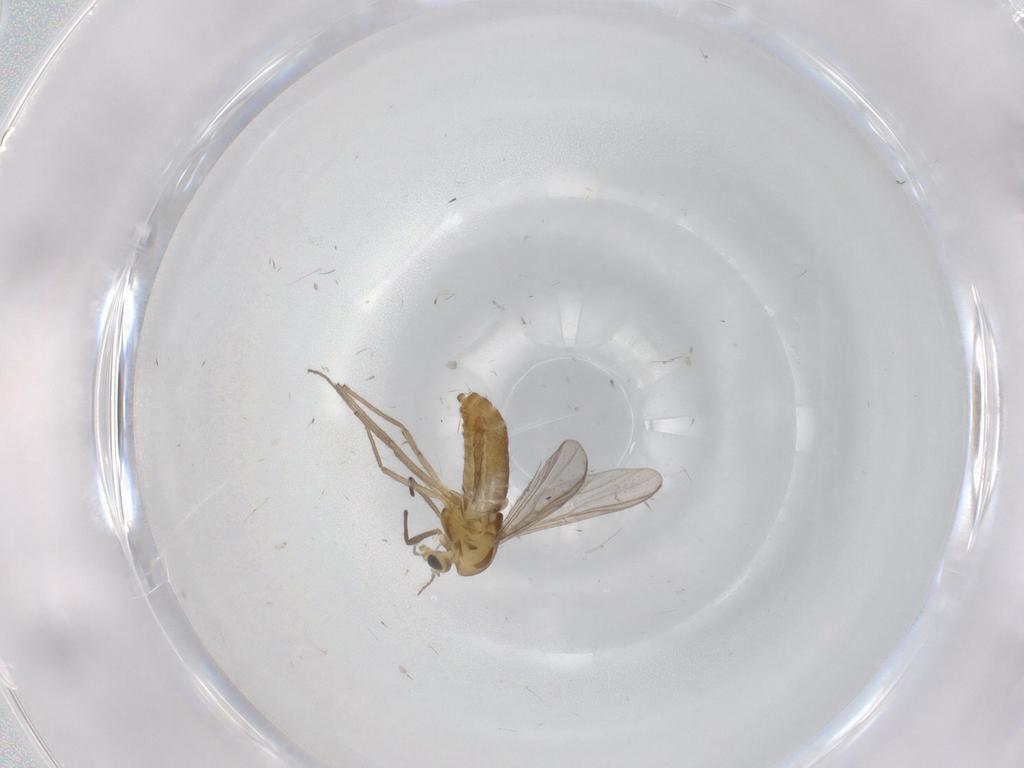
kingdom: Animalia
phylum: Arthropoda
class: Insecta
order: Diptera
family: Chironomidae
